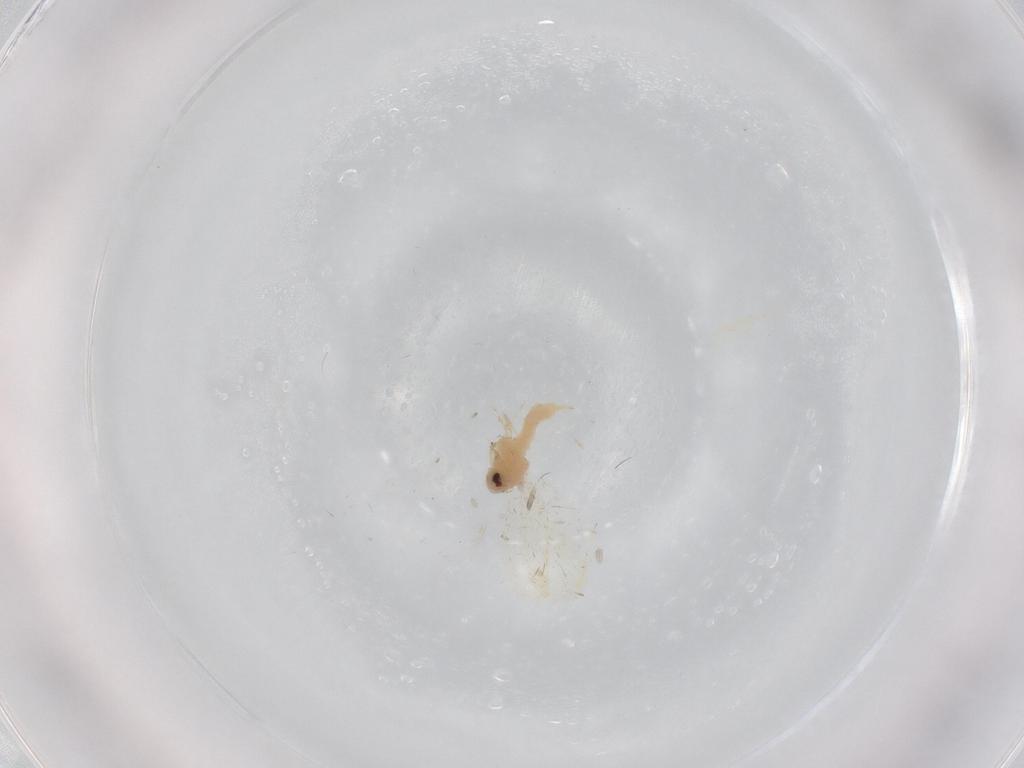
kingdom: Animalia
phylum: Arthropoda
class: Insecta
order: Hemiptera
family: Aleyrodidae
